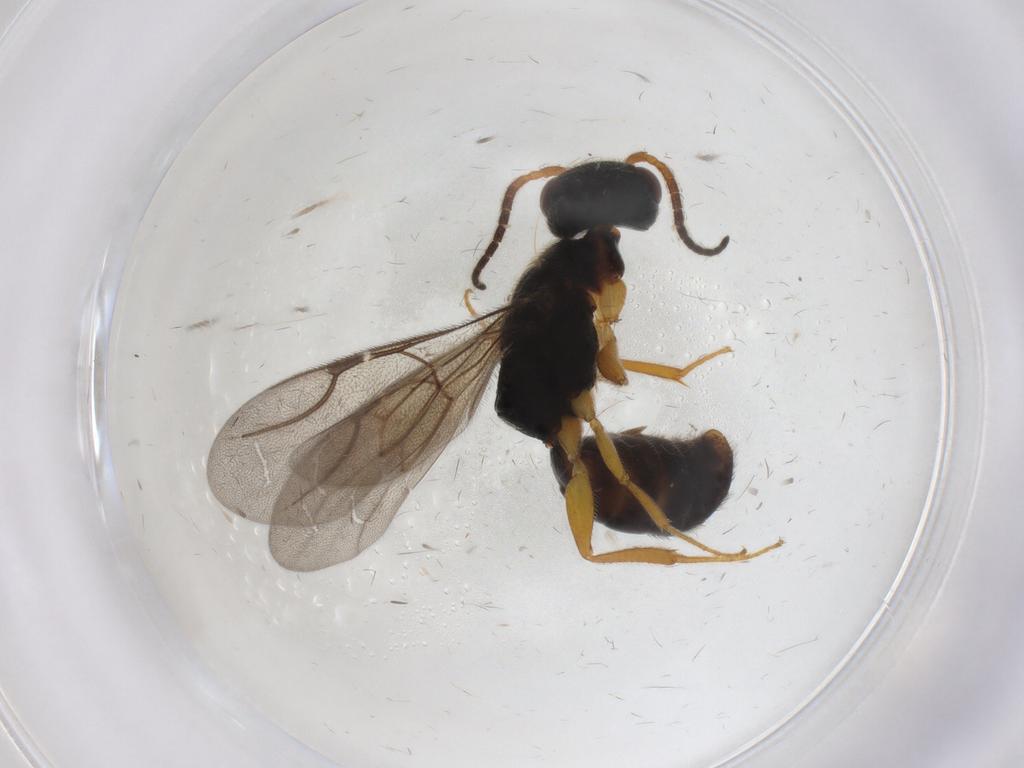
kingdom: Animalia
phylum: Arthropoda
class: Insecta
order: Hymenoptera
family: Bethylidae
